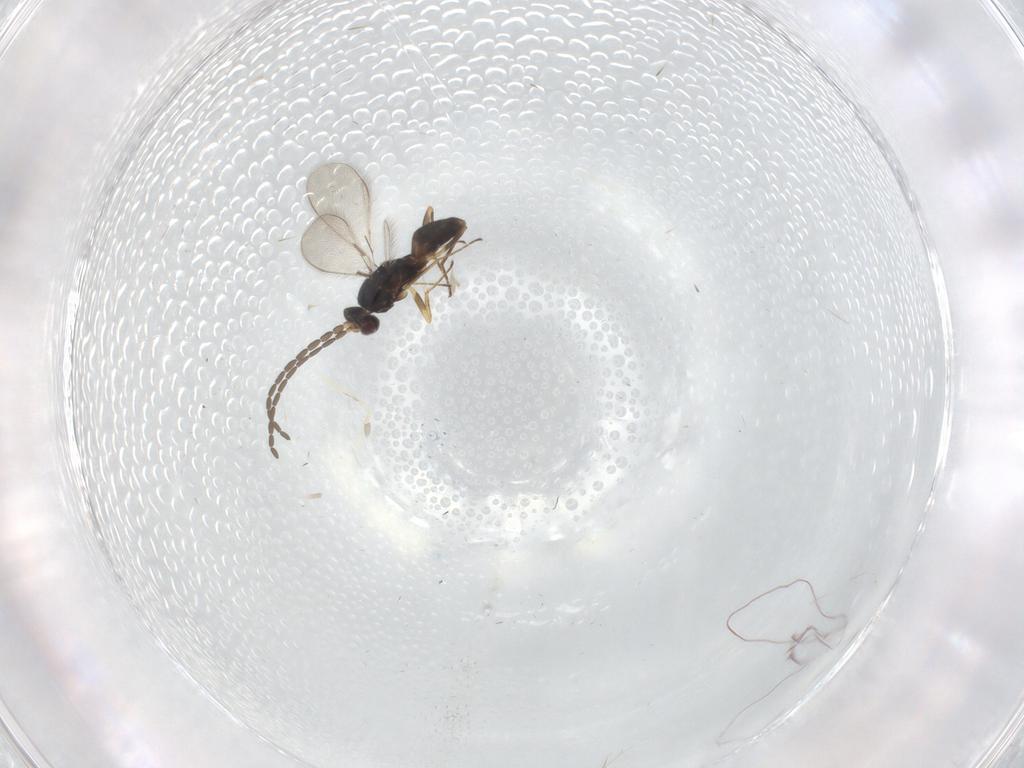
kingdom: Animalia
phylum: Arthropoda
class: Insecta
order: Hymenoptera
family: Mymaridae
